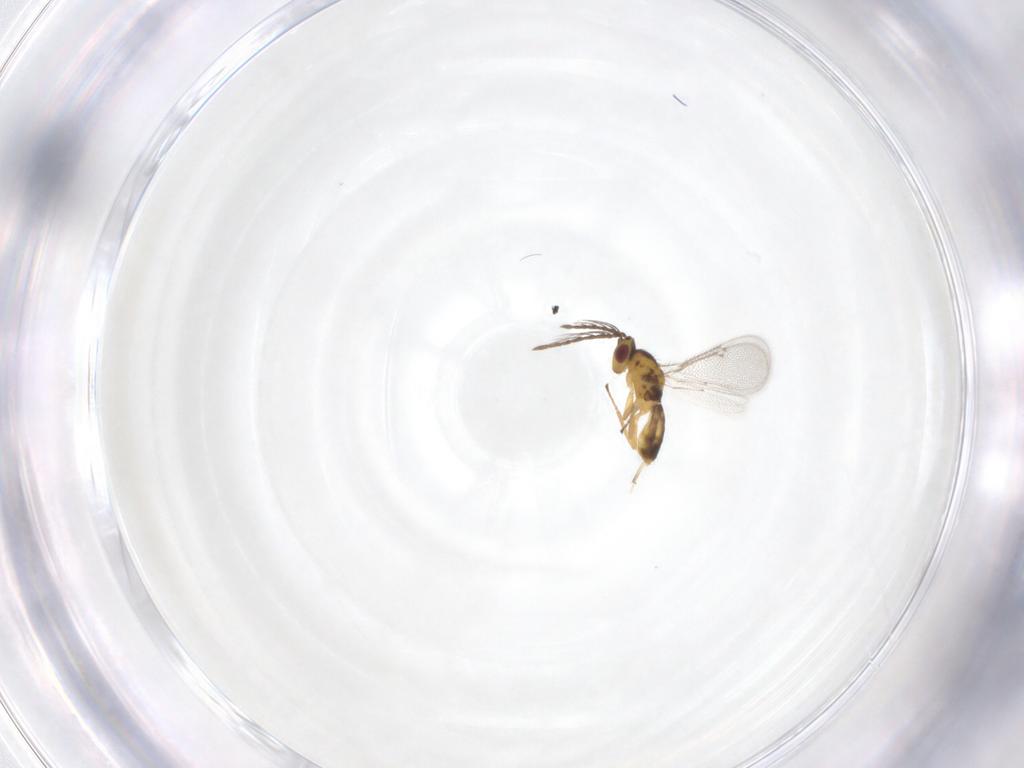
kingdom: Animalia
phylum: Arthropoda
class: Insecta
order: Hymenoptera
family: Eulophidae
